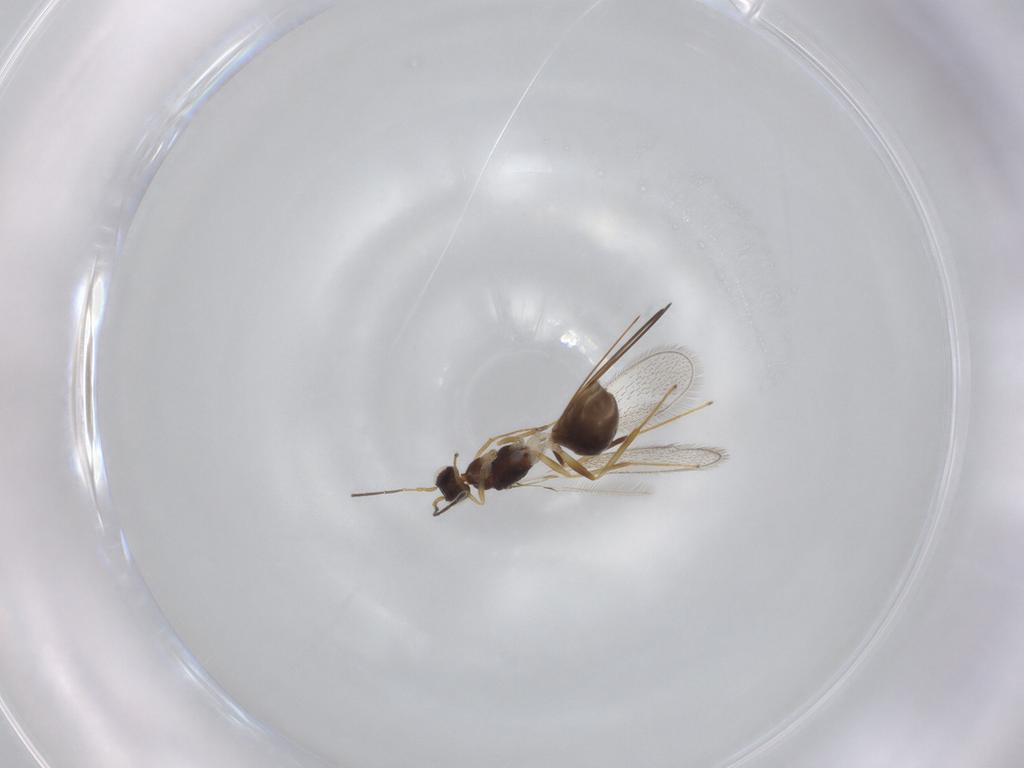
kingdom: Animalia
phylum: Arthropoda
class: Insecta
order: Hymenoptera
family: Mymaridae
